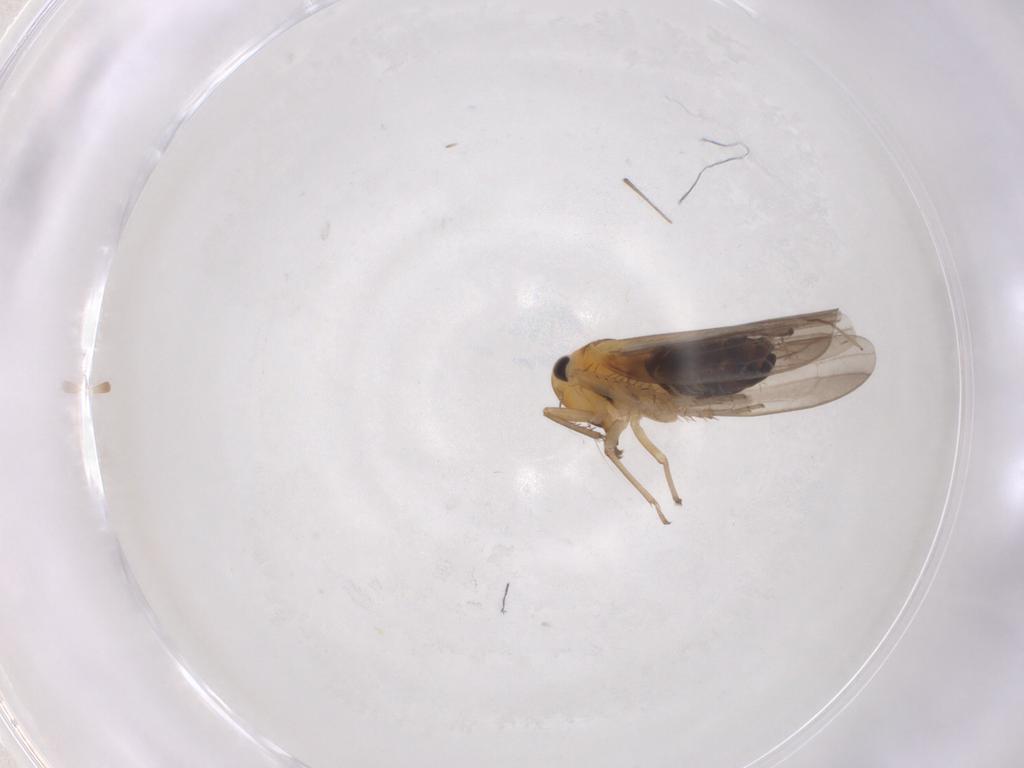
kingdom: Animalia
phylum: Arthropoda
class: Insecta
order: Hemiptera
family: Cicadellidae
